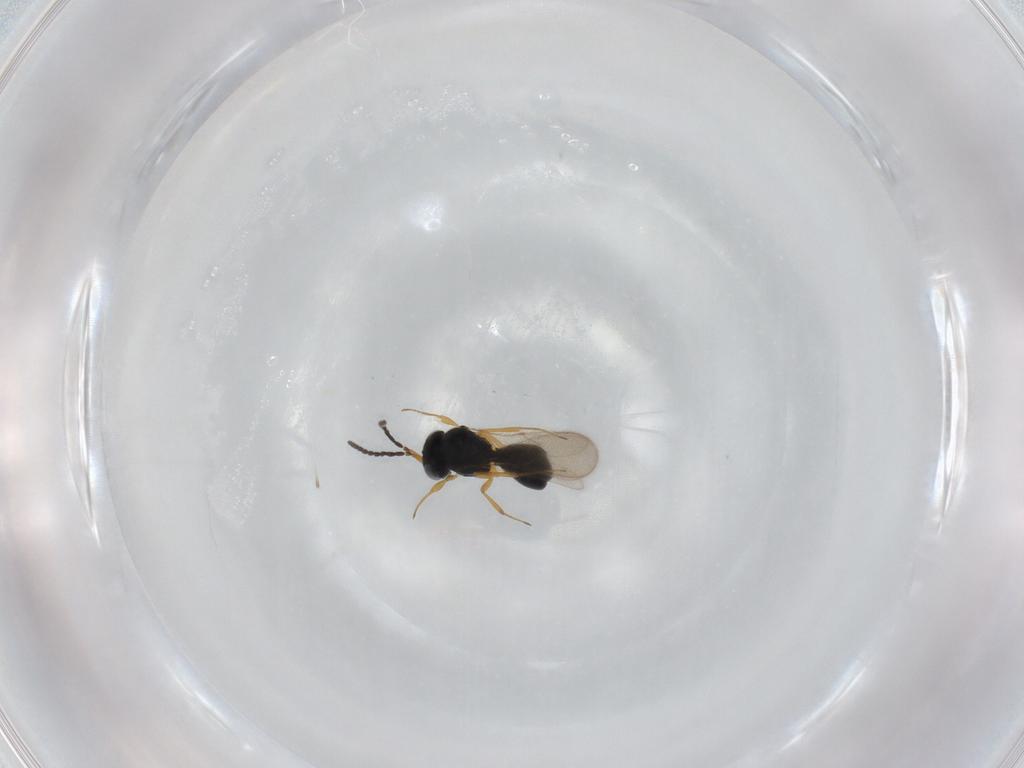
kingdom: Animalia
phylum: Arthropoda
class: Insecta
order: Hymenoptera
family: Scelionidae
